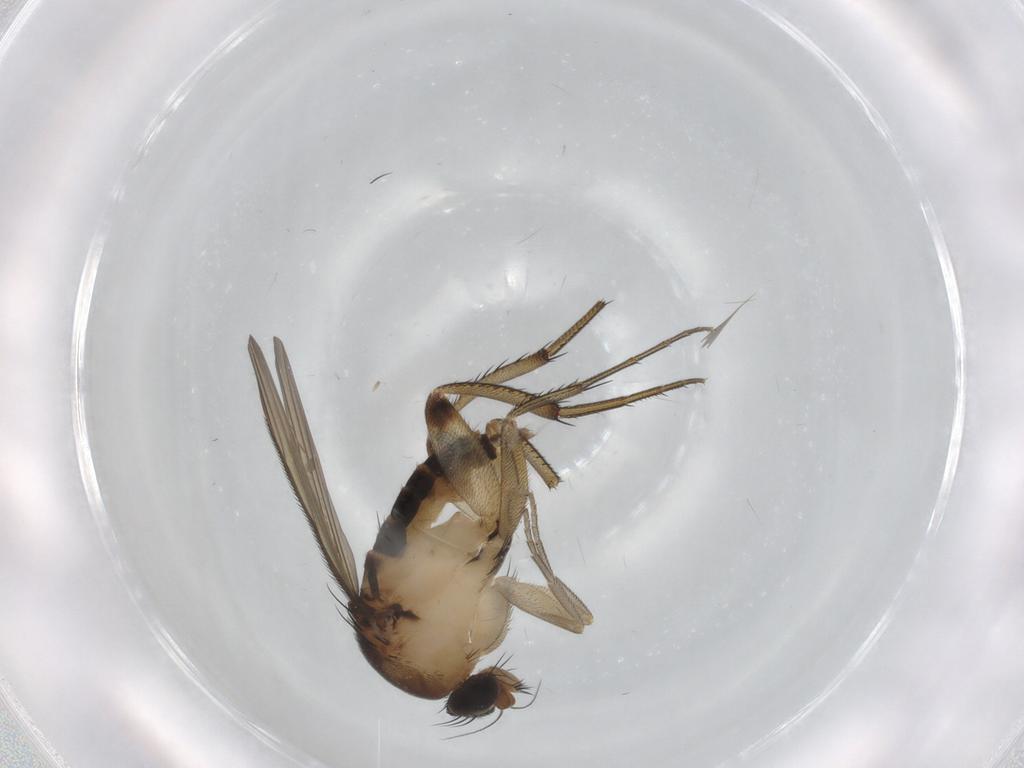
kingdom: Animalia
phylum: Arthropoda
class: Insecta
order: Diptera
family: Phoridae
